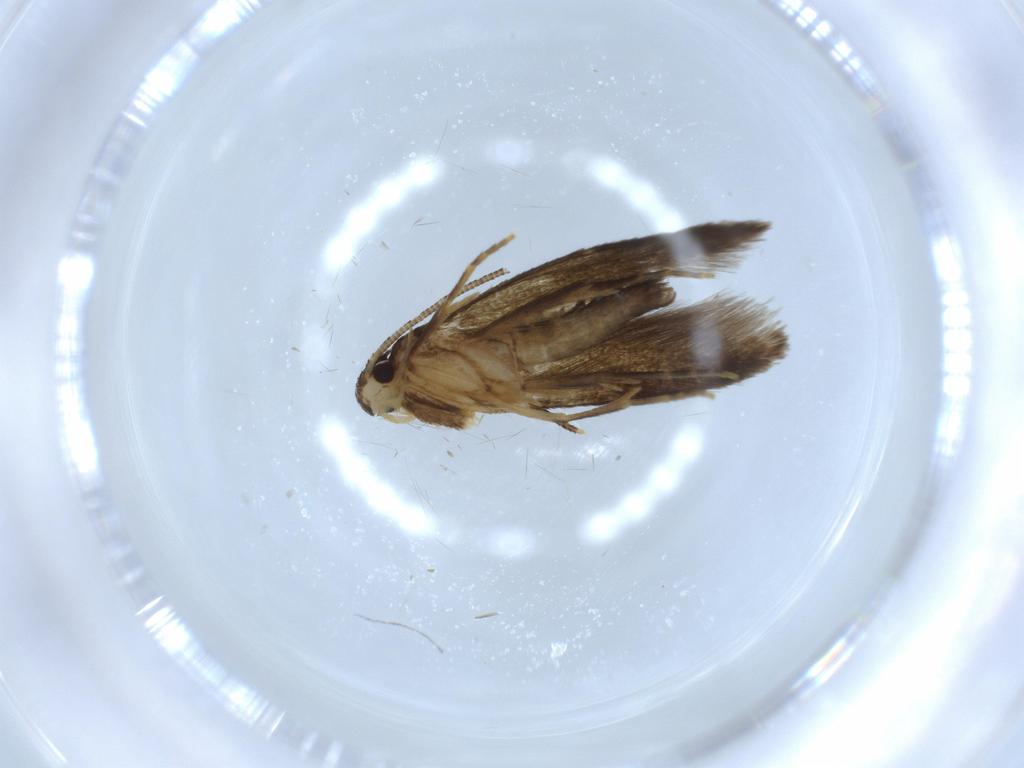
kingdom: Animalia
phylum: Arthropoda
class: Insecta
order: Lepidoptera
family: Tineidae
